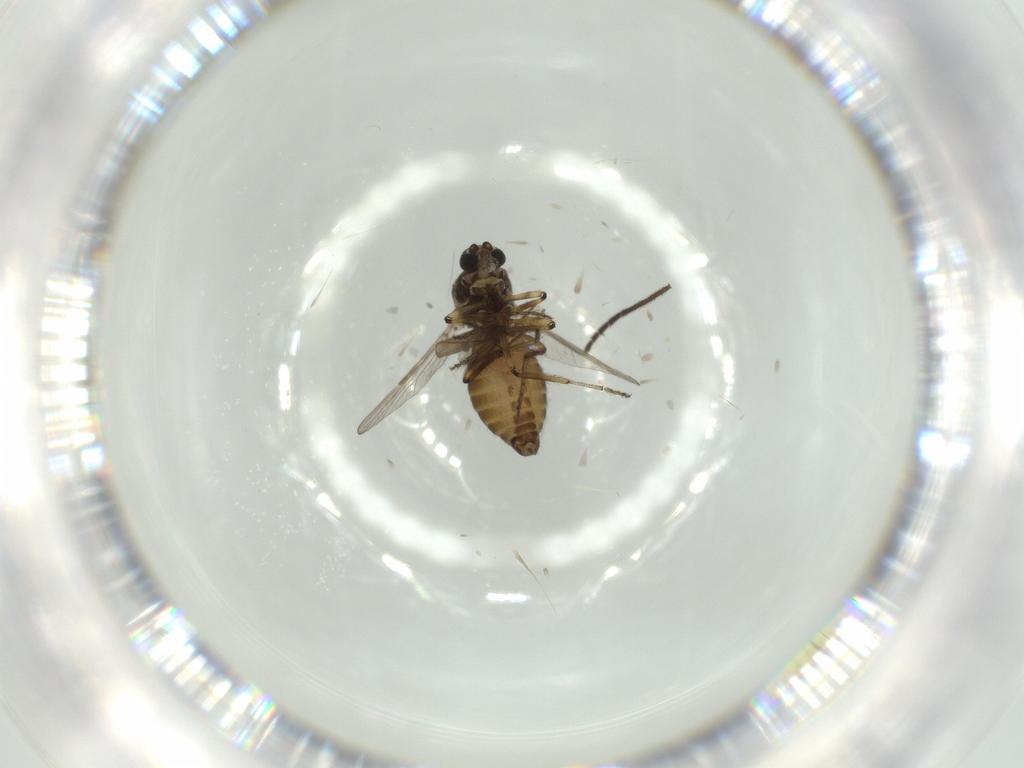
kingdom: Animalia
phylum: Arthropoda
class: Insecta
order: Diptera
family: Ceratopogonidae
